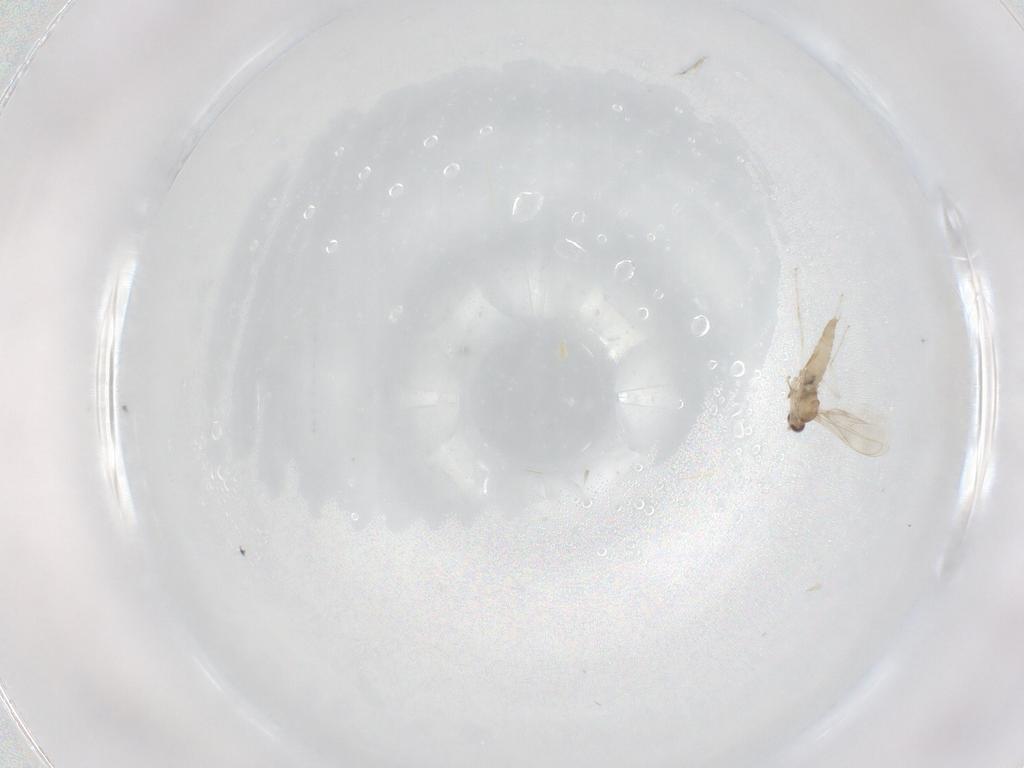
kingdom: Animalia
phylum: Arthropoda
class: Insecta
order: Diptera
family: Cecidomyiidae
